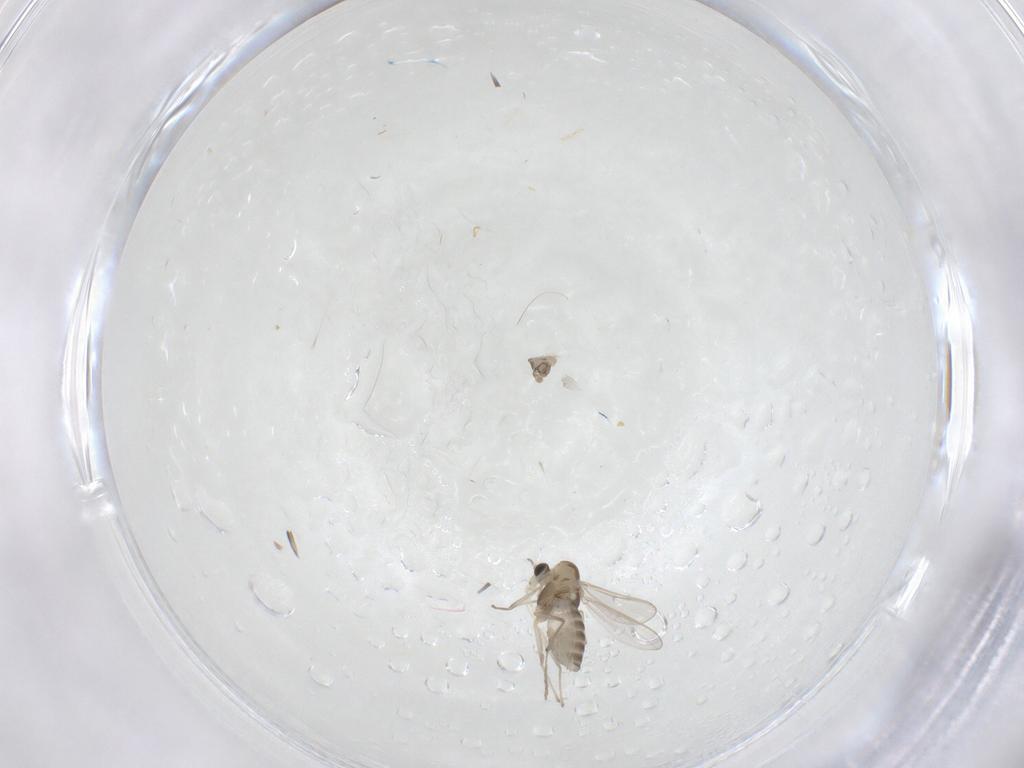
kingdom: Animalia
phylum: Arthropoda
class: Insecta
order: Diptera
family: Chironomidae
